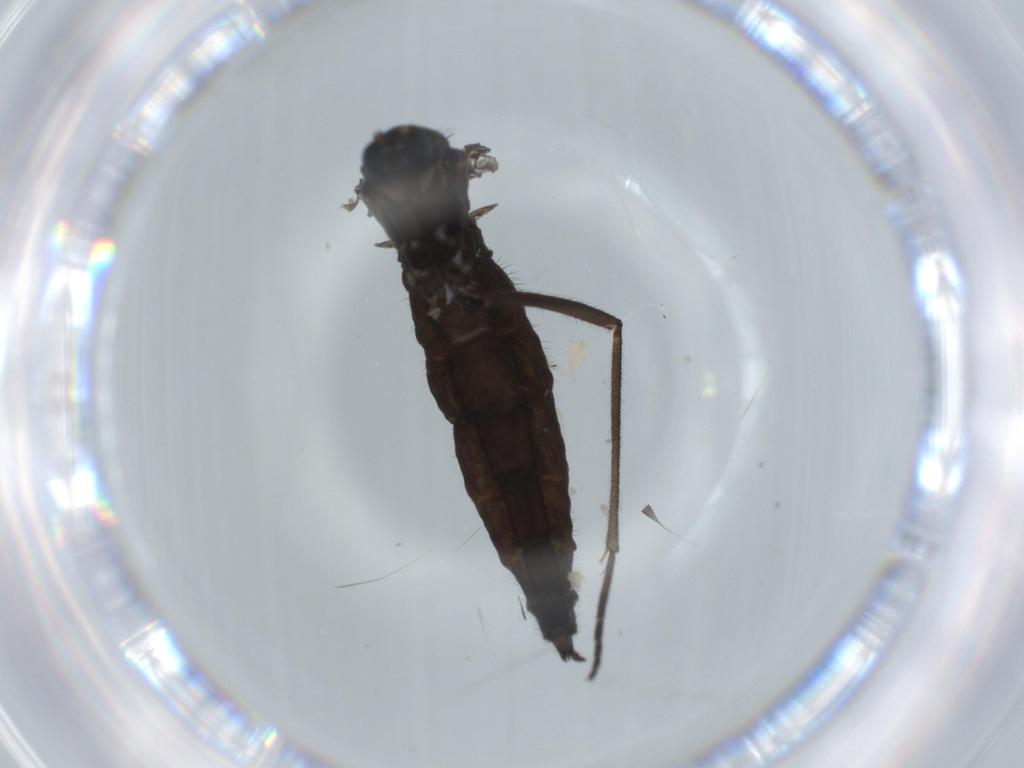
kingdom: Animalia
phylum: Arthropoda
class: Insecta
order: Diptera
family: Sciaridae
